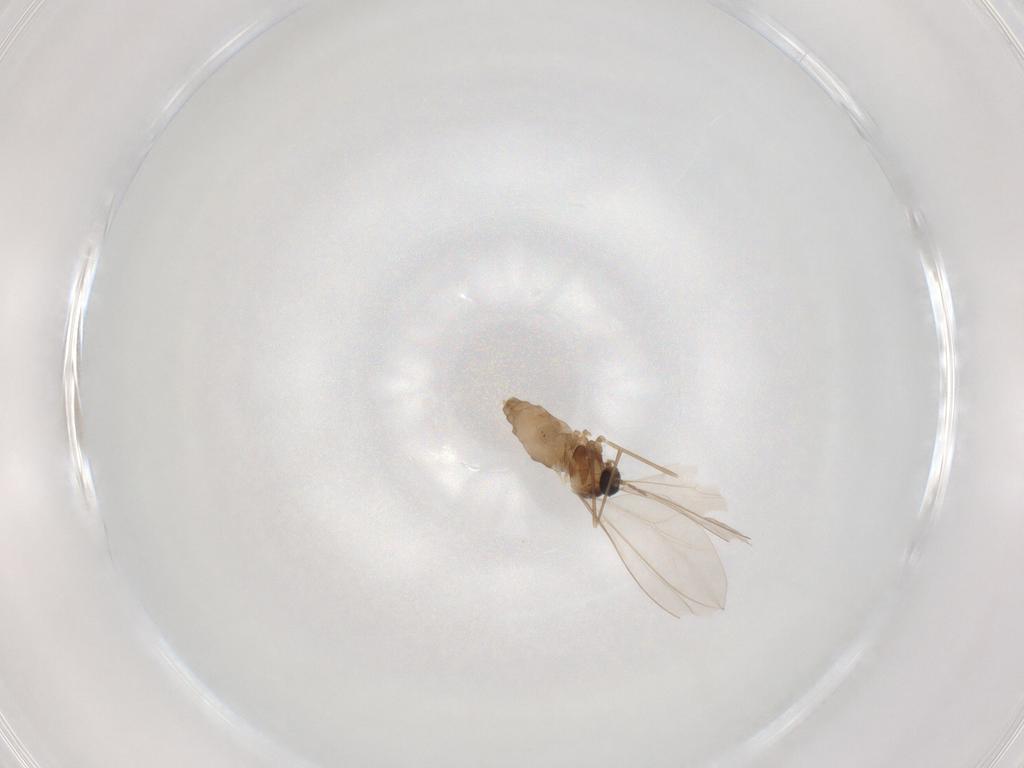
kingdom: Animalia
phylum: Arthropoda
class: Insecta
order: Diptera
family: Cecidomyiidae
